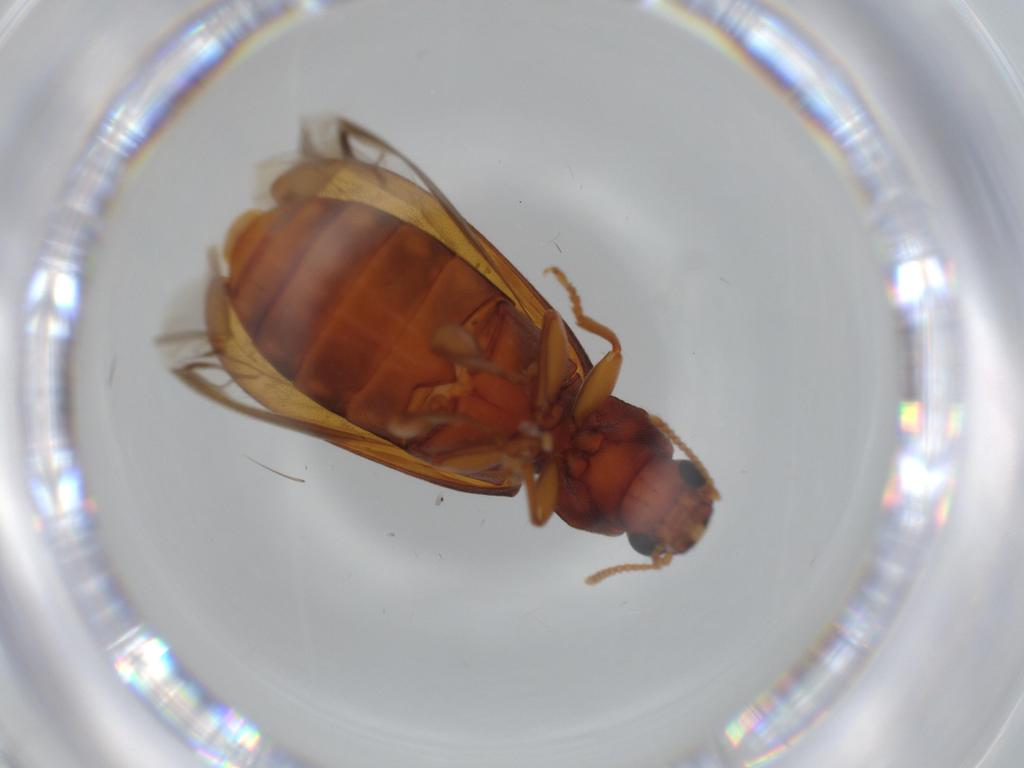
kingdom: Animalia
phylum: Arthropoda
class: Insecta
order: Coleoptera
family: Mycteridae
